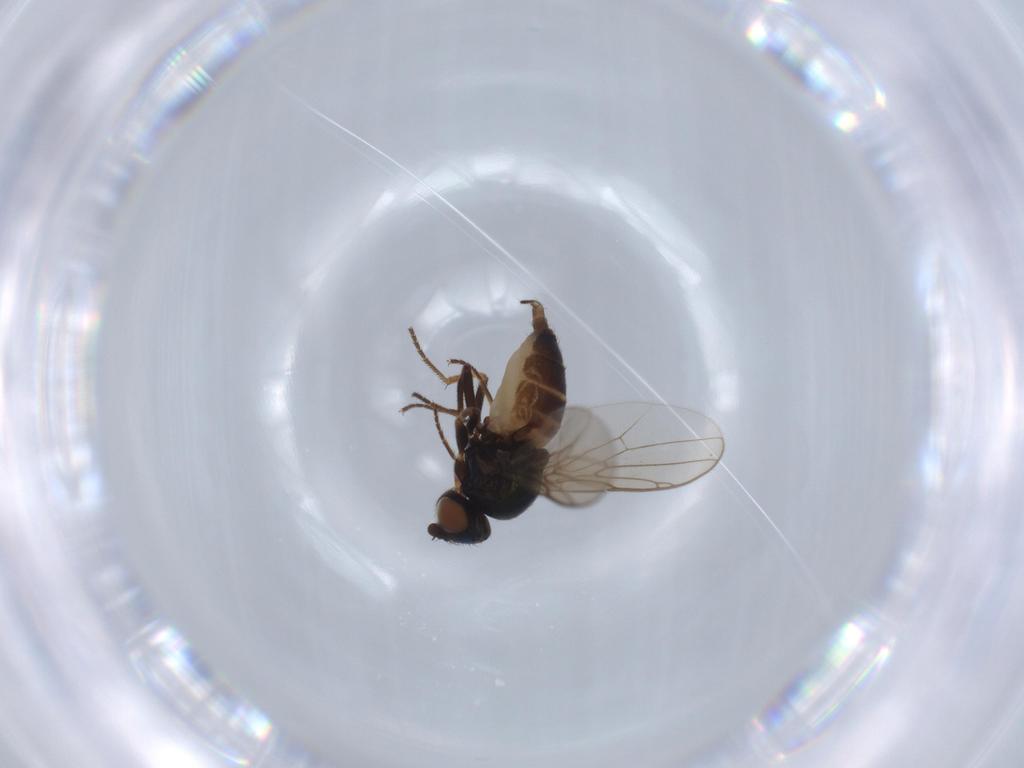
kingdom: Animalia
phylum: Arthropoda
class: Insecta
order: Diptera
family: Chloropidae
